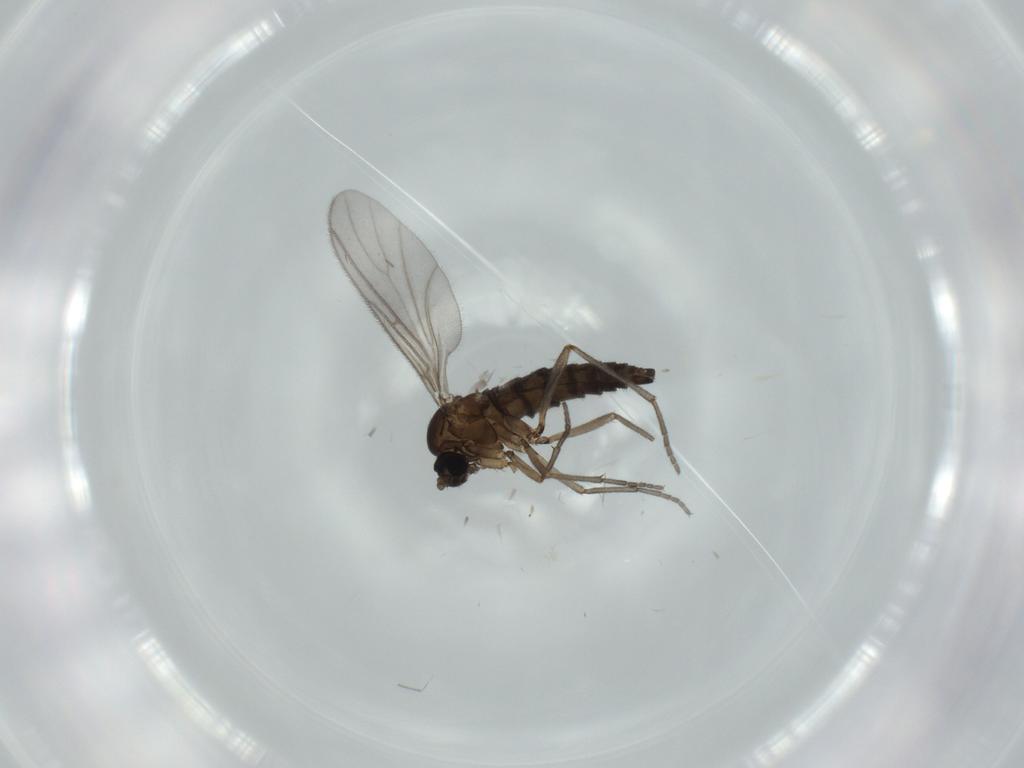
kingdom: Animalia
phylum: Arthropoda
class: Insecta
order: Diptera
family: Sciaridae
